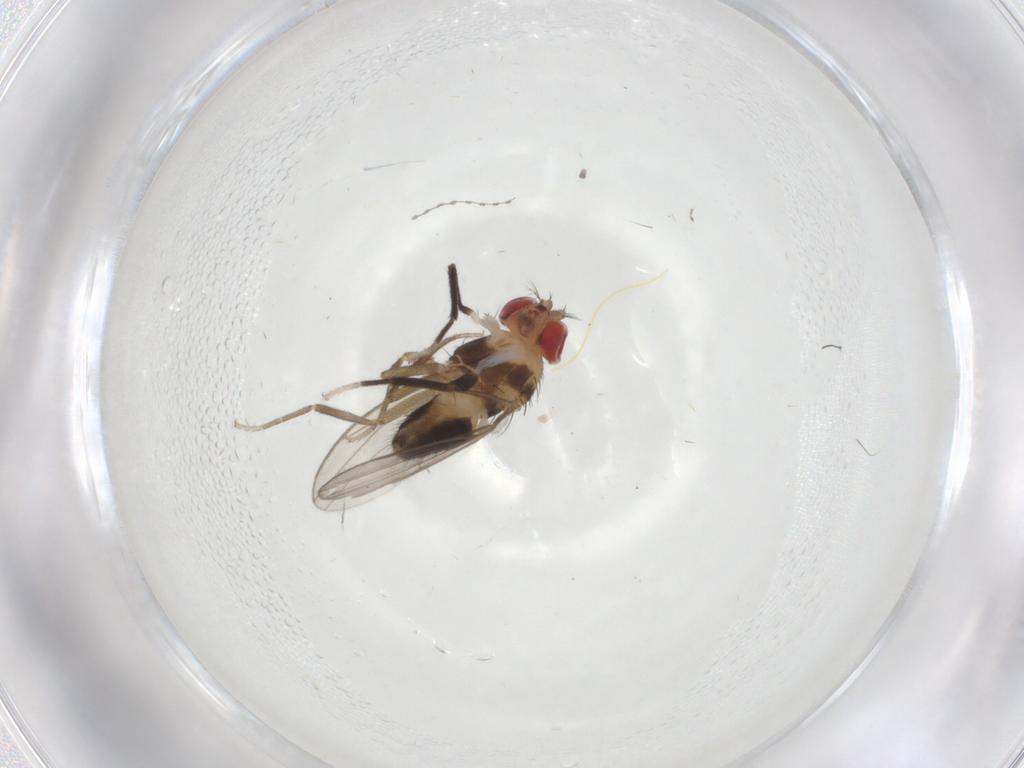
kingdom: Animalia
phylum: Arthropoda
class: Insecta
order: Diptera
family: Drosophilidae
